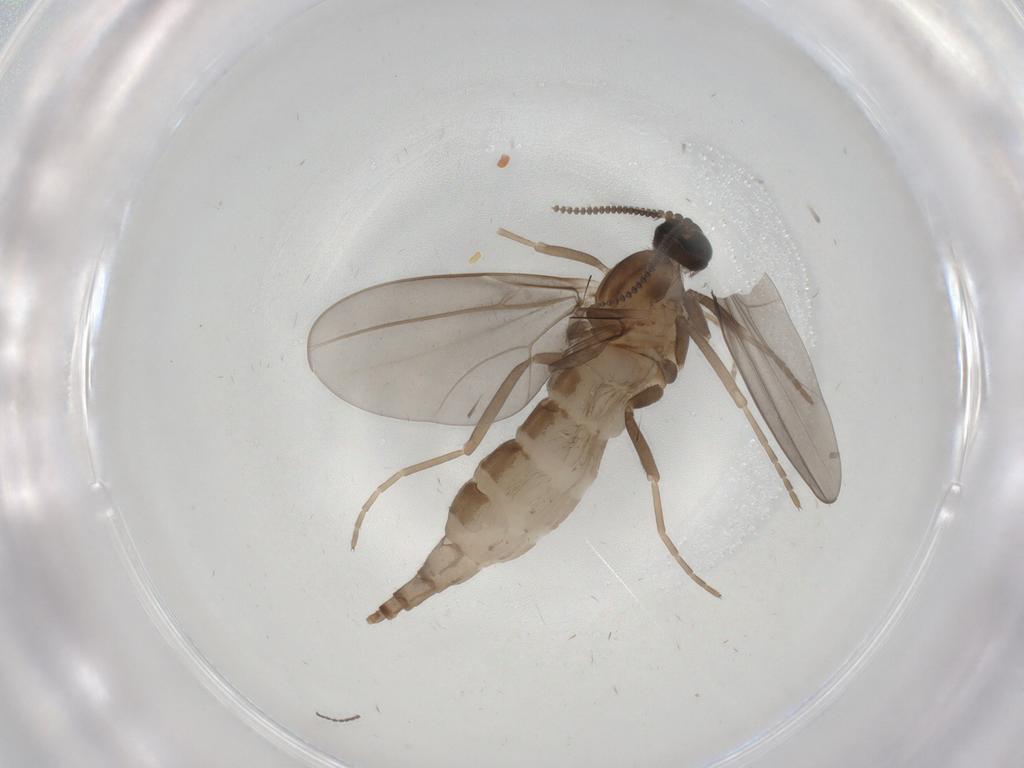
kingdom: Animalia
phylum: Arthropoda
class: Insecta
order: Diptera
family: Cecidomyiidae
